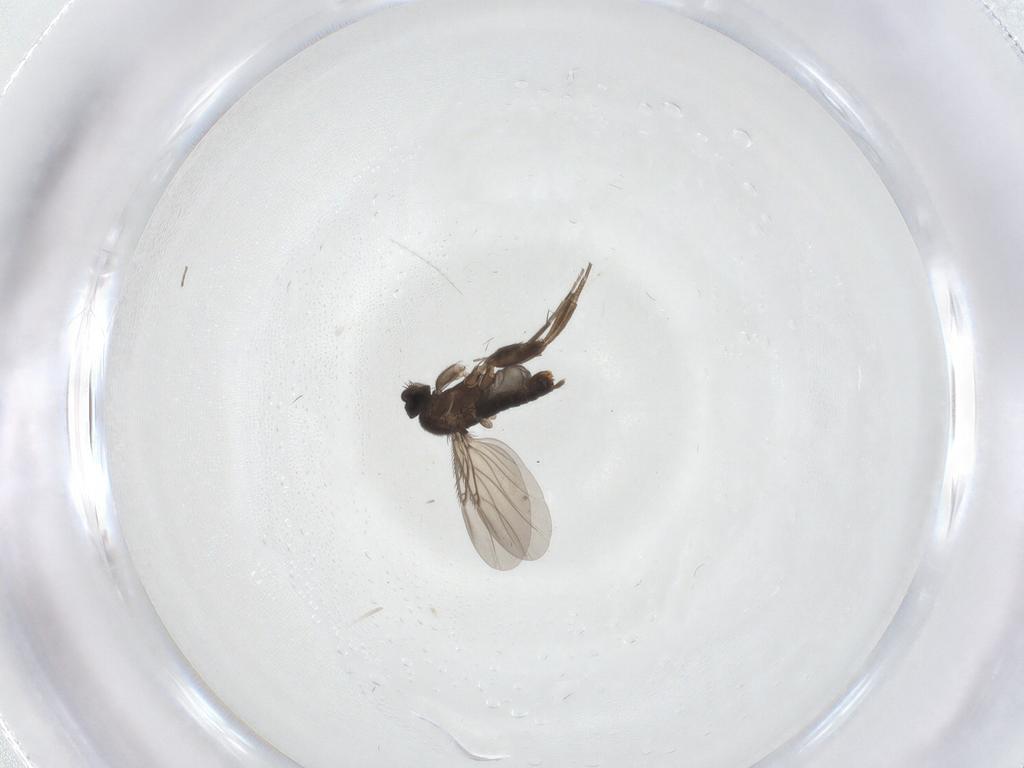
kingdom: Animalia
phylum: Arthropoda
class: Insecta
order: Diptera
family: Phoridae
